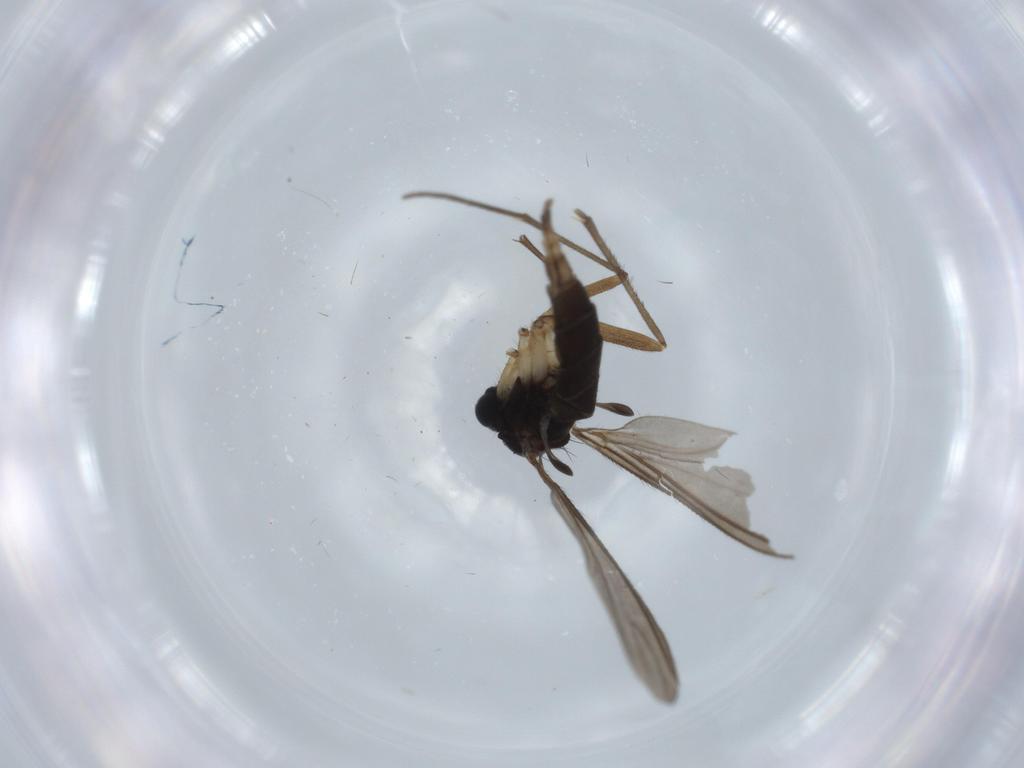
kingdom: Animalia
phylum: Arthropoda
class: Insecta
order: Diptera
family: Sciaridae
